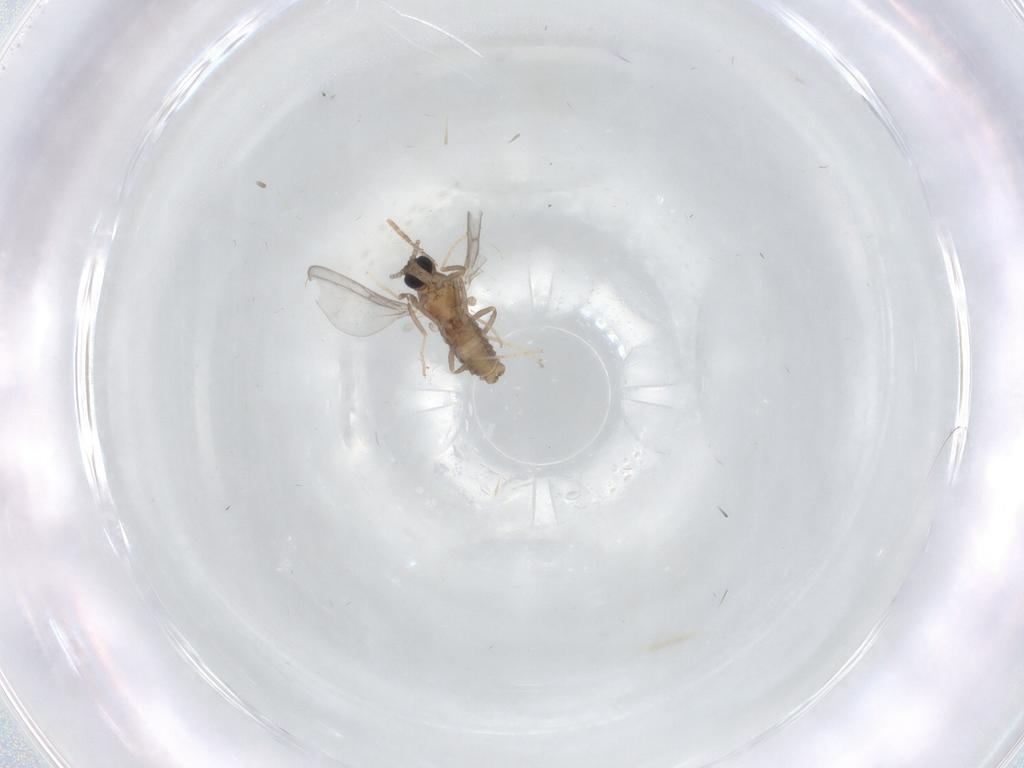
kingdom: Animalia
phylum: Arthropoda
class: Insecta
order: Diptera
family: Cecidomyiidae
